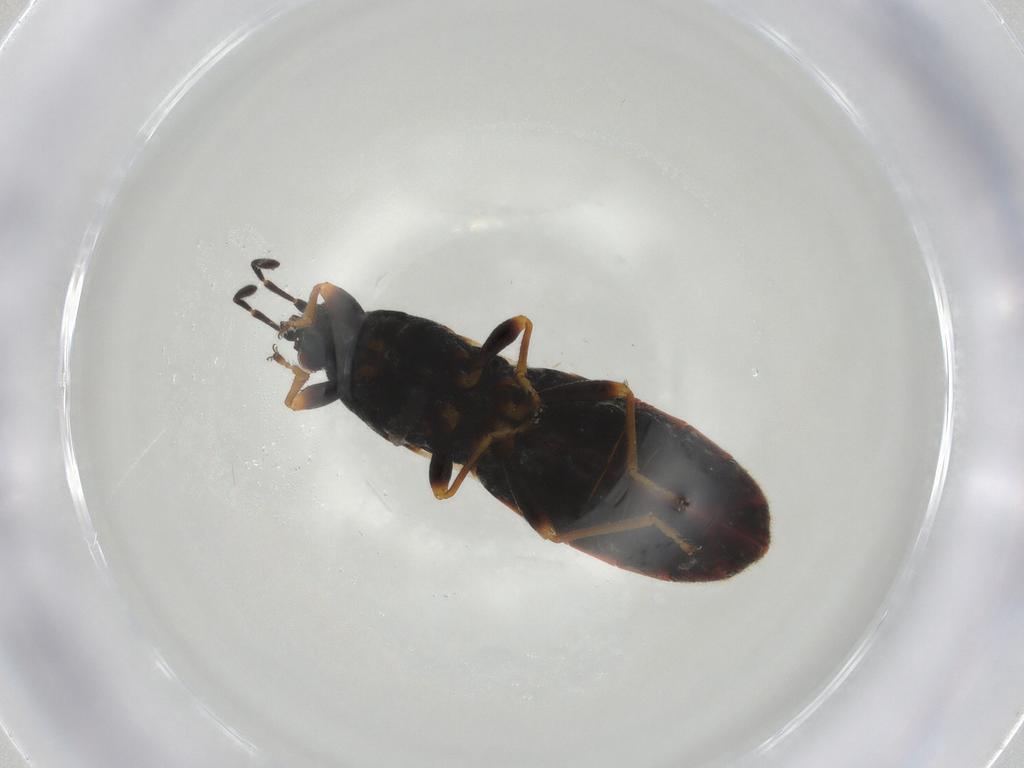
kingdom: Animalia
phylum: Arthropoda
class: Insecta
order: Hemiptera
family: Blissidae
